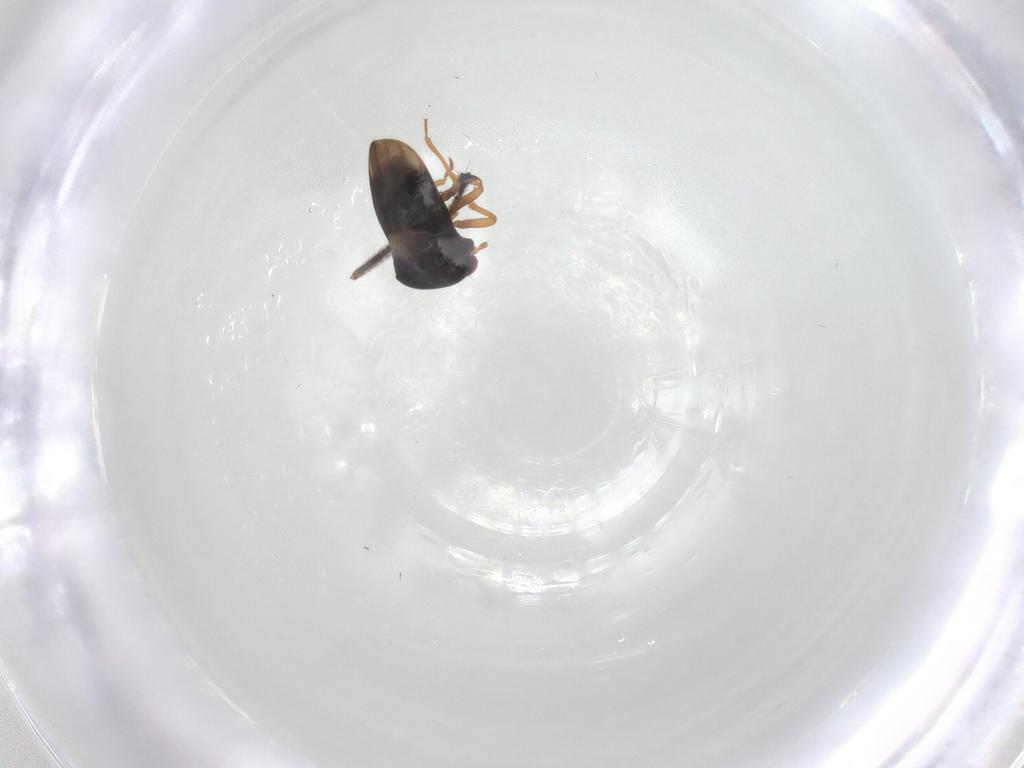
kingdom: Animalia
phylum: Arthropoda
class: Insecta
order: Hemiptera
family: Schizopteridae
